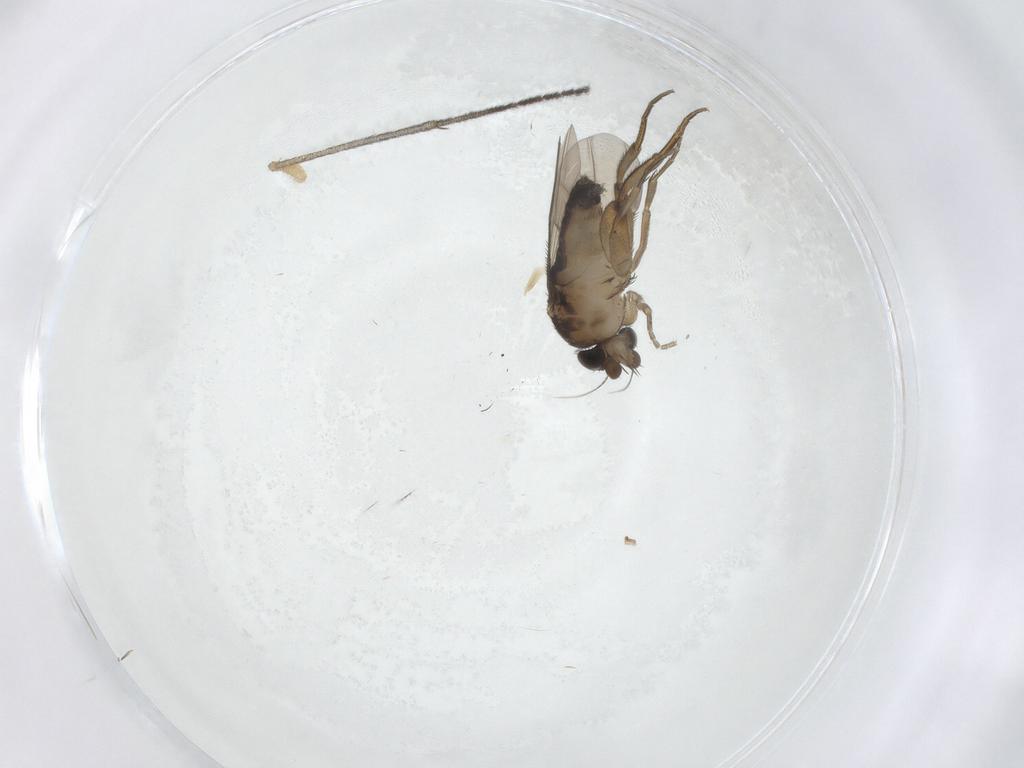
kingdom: Animalia
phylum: Arthropoda
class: Insecta
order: Diptera
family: Phoridae
